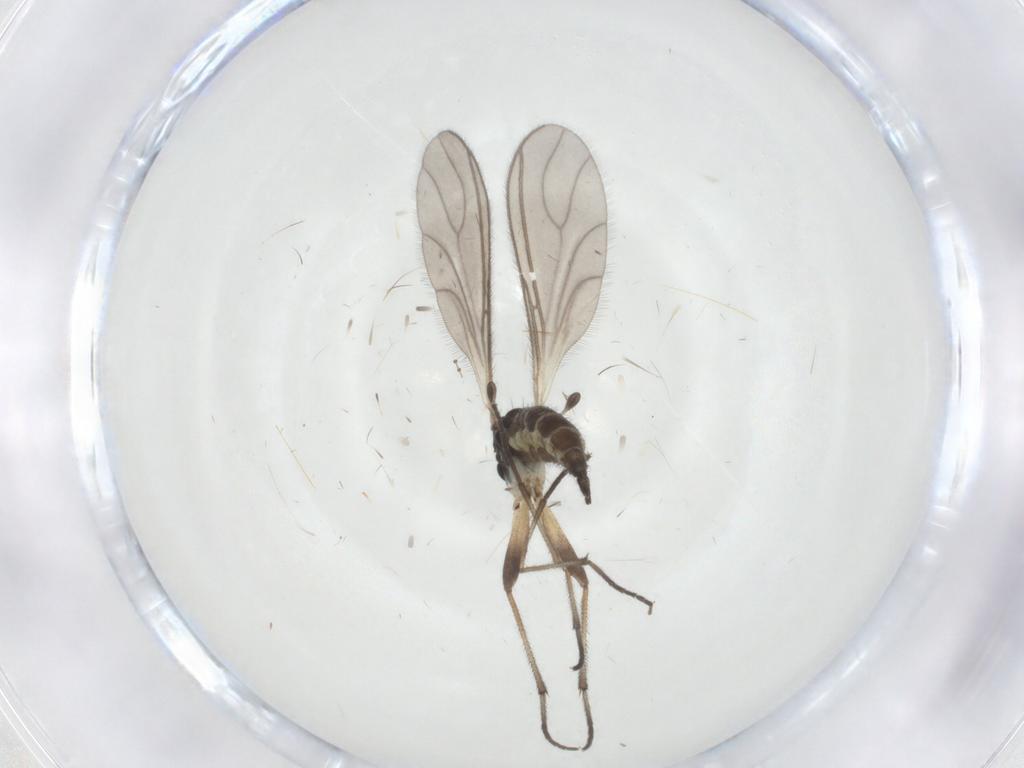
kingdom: Animalia
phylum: Arthropoda
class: Insecta
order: Diptera
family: Sciaridae
